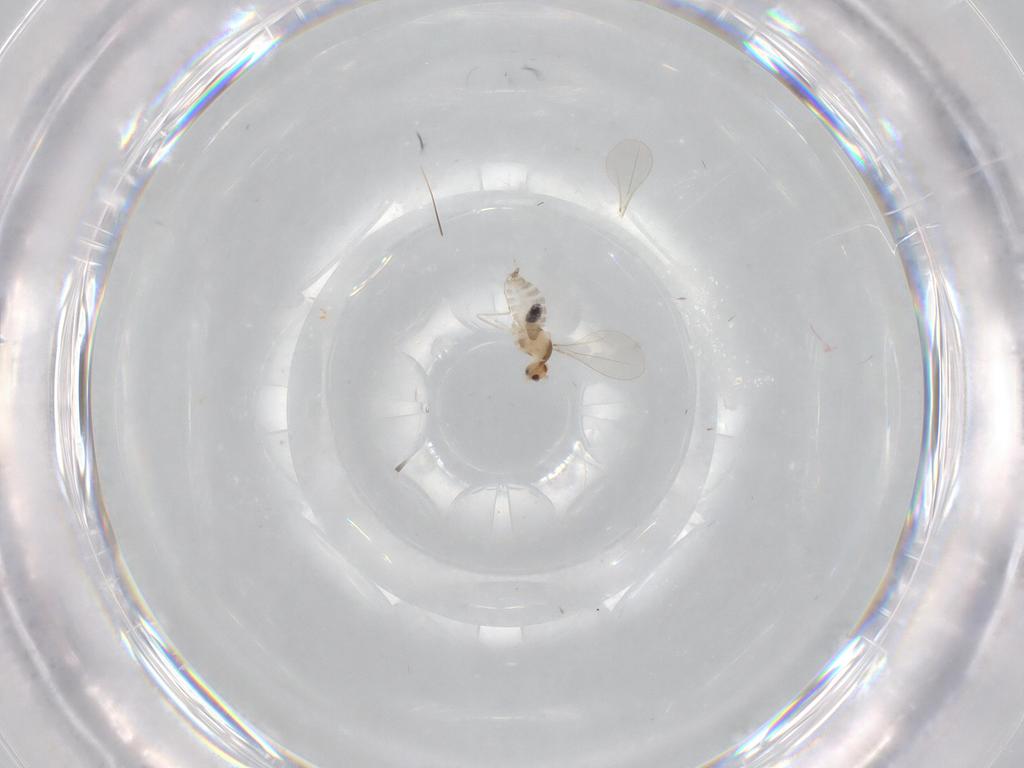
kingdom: Animalia
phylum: Arthropoda
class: Insecta
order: Diptera
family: Cecidomyiidae
